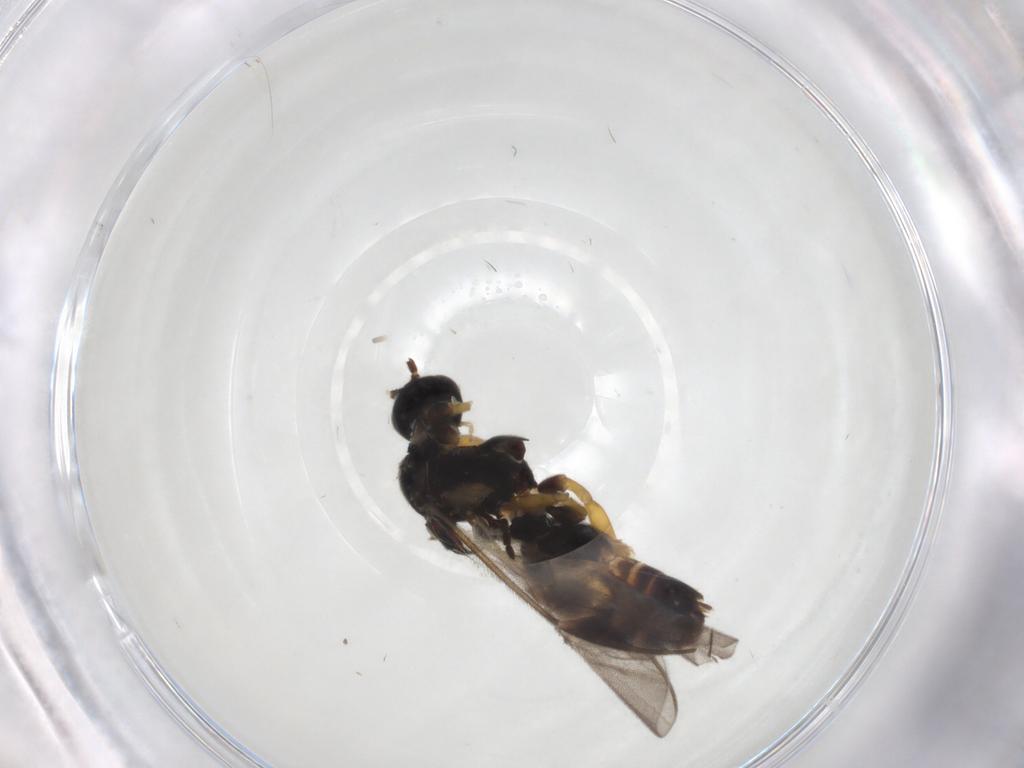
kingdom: Animalia
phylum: Arthropoda
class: Insecta
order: Hymenoptera
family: Braconidae
